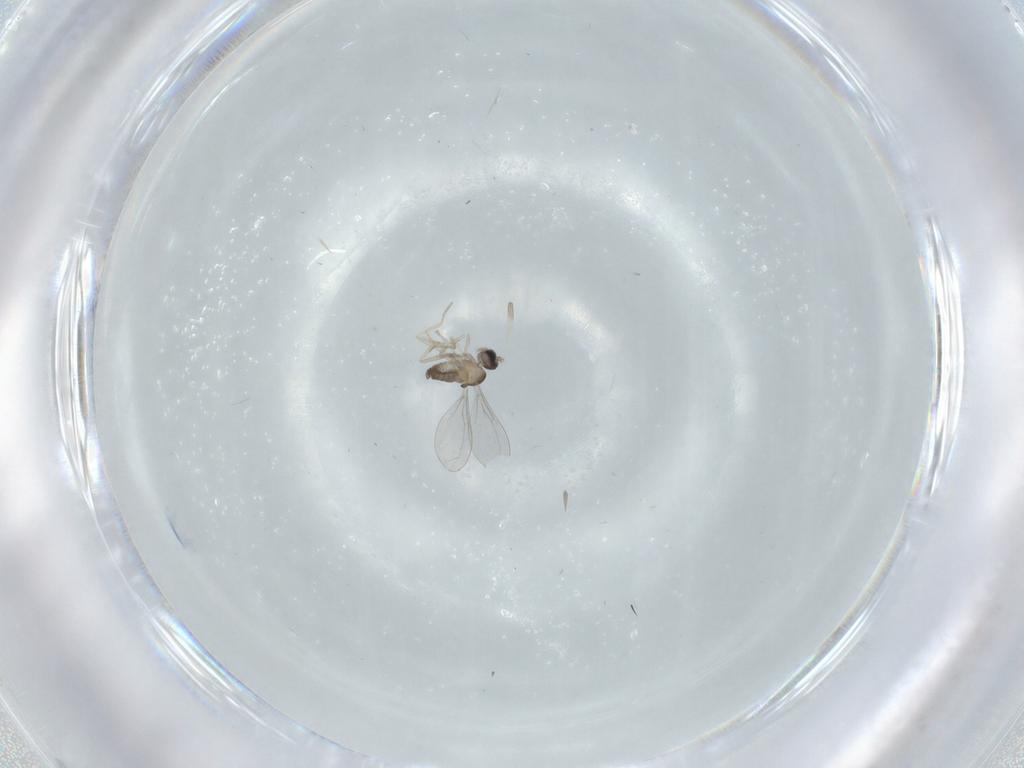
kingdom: Animalia
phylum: Arthropoda
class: Insecta
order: Diptera
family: Cecidomyiidae
